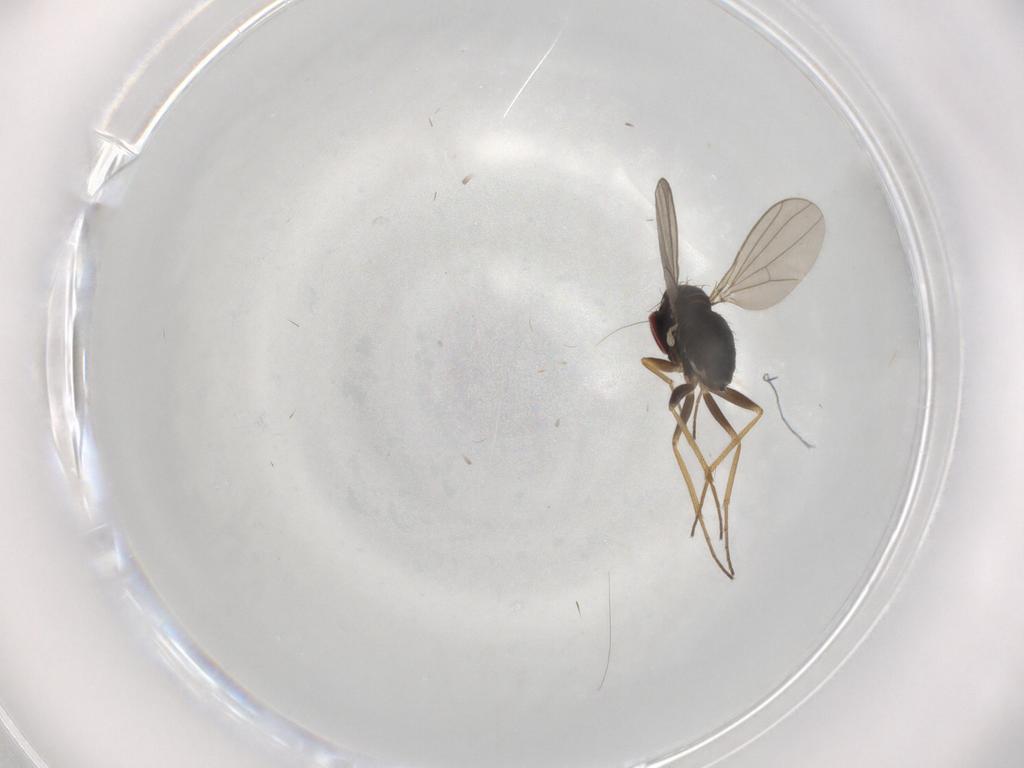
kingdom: Animalia
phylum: Arthropoda
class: Insecta
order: Diptera
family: Dolichopodidae
